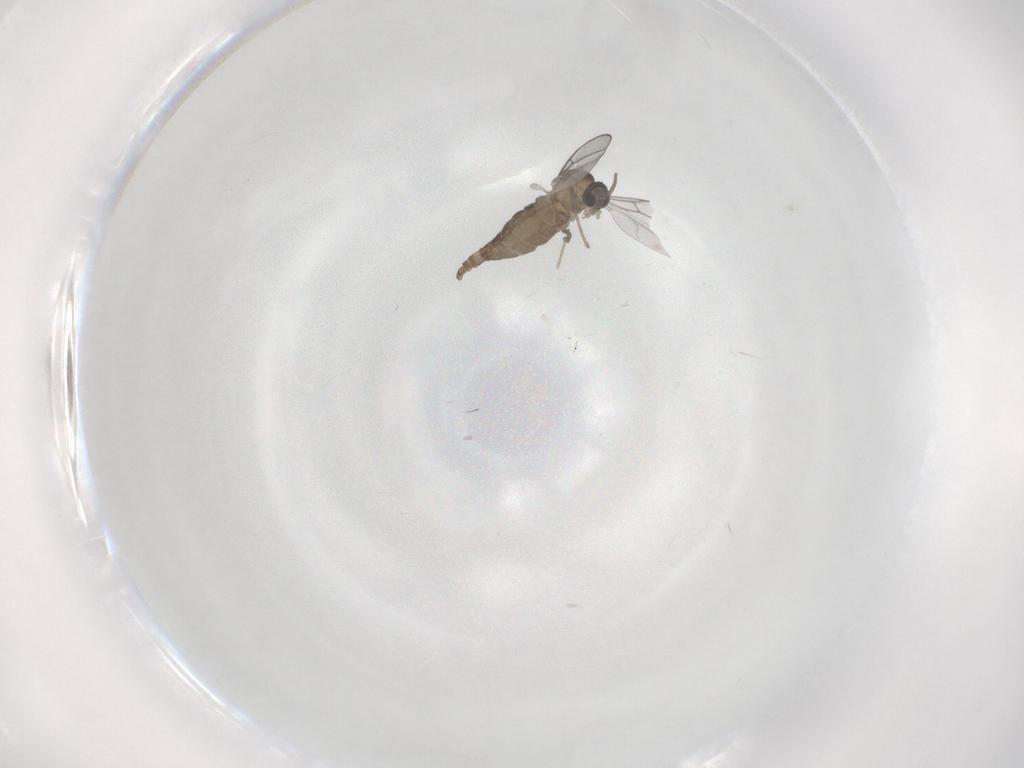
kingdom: Animalia
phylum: Arthropoda
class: Insecta
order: Diptera
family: Cecidomyiidae
